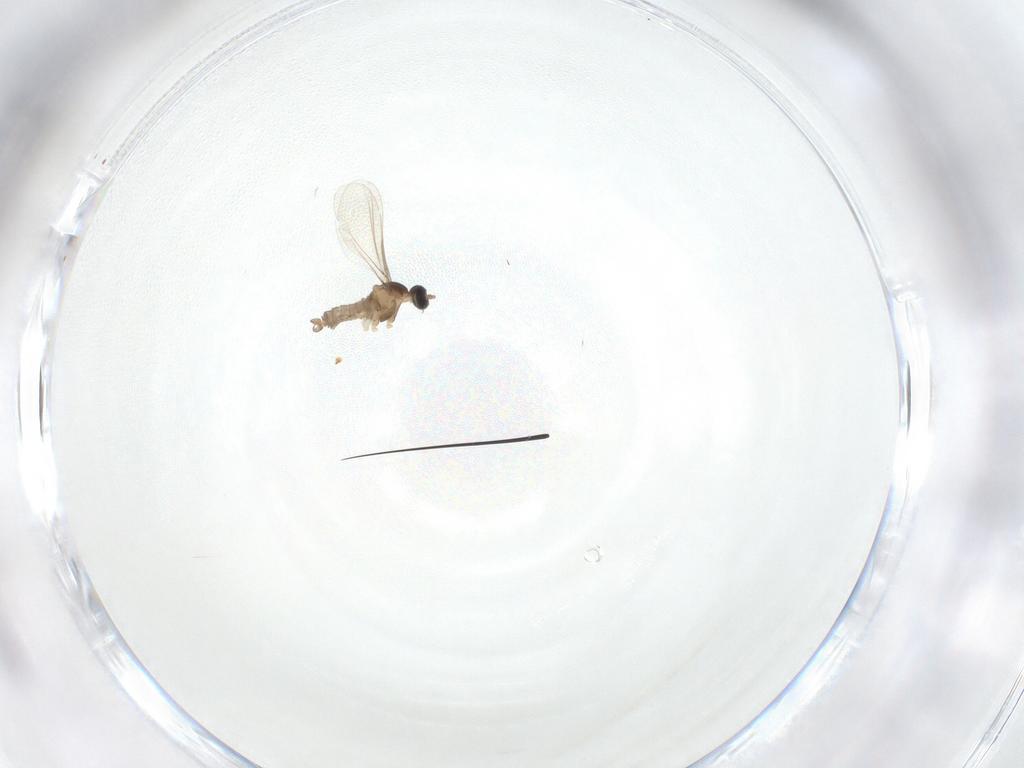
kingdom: Animalia
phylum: Arthropoda
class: Insecta
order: Diptera
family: Cecidomyiidae
